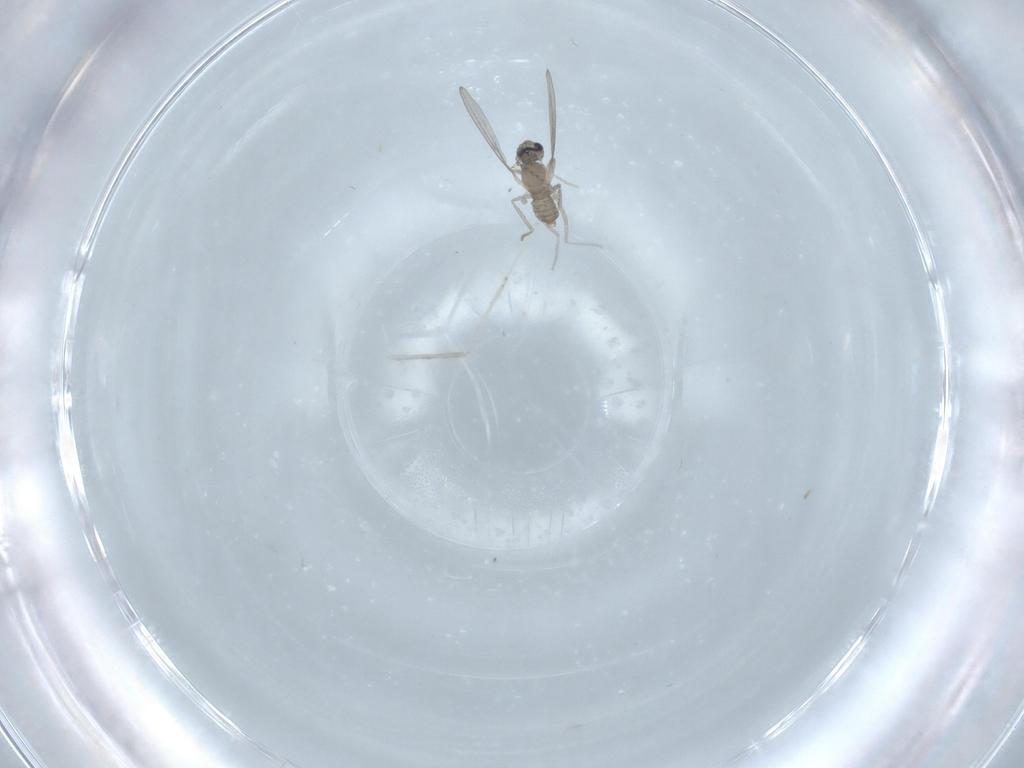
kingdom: Animalia
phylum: Arthropoda
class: Insecta
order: Diptera
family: Cecidomyiidae
